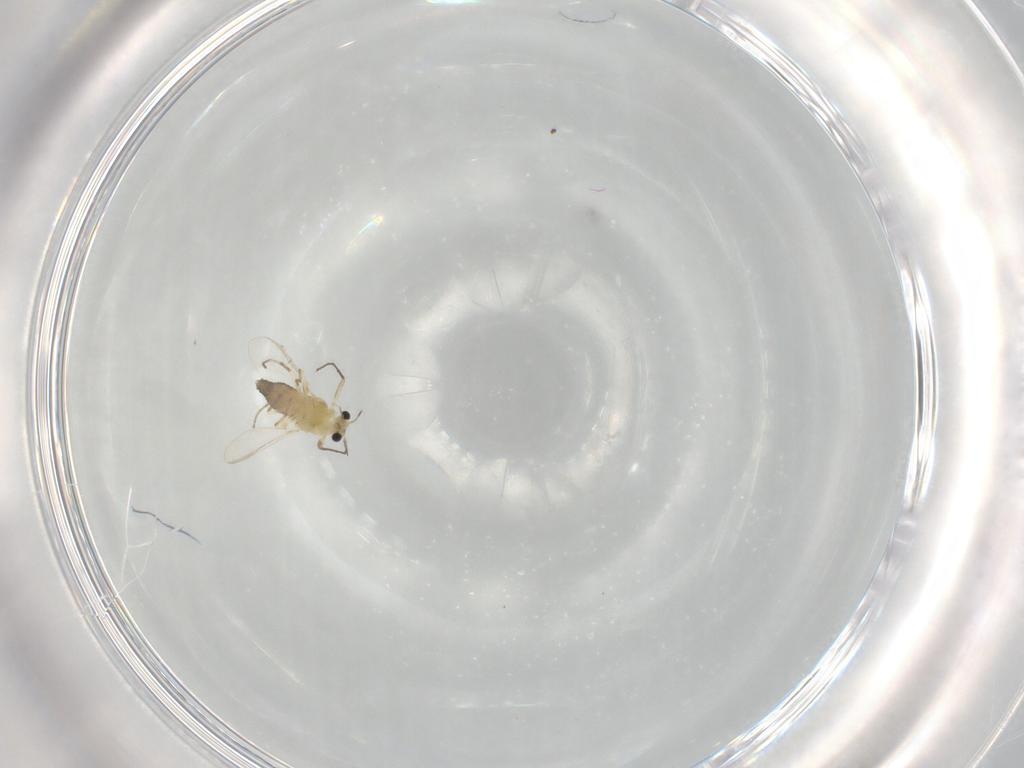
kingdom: Animalia
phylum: Arthropoda
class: Insecta
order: Diptera
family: Chironomidae
